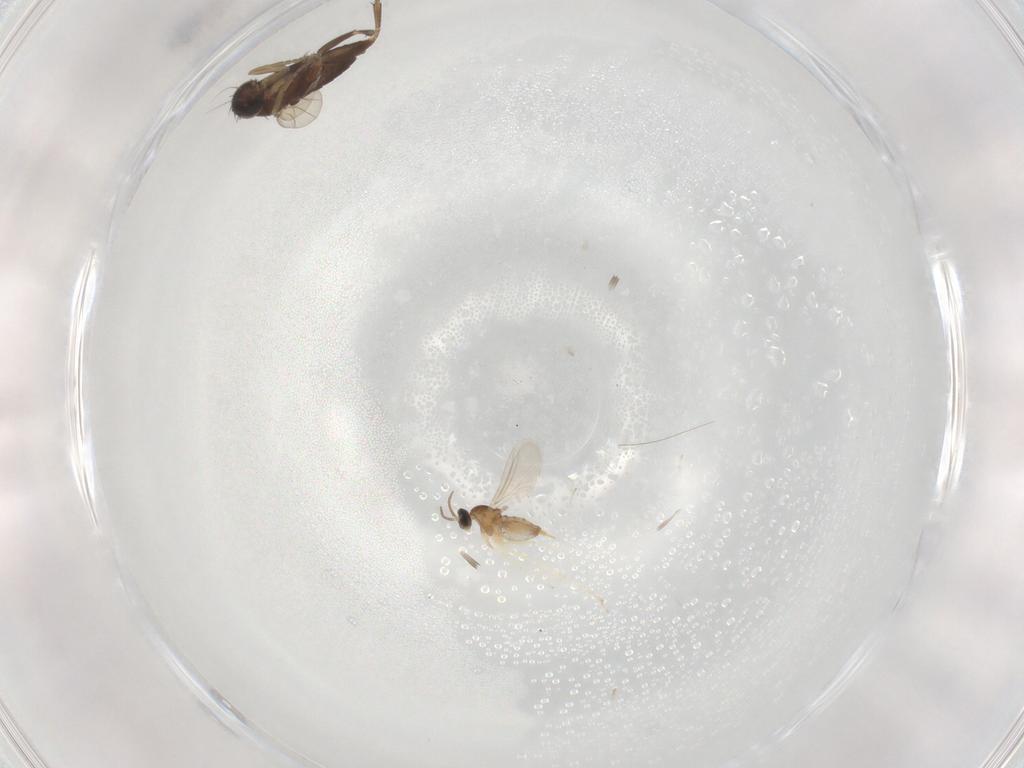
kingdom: Animalia
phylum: Arthropoda
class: Insecta
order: Diptera
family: Phoridae
